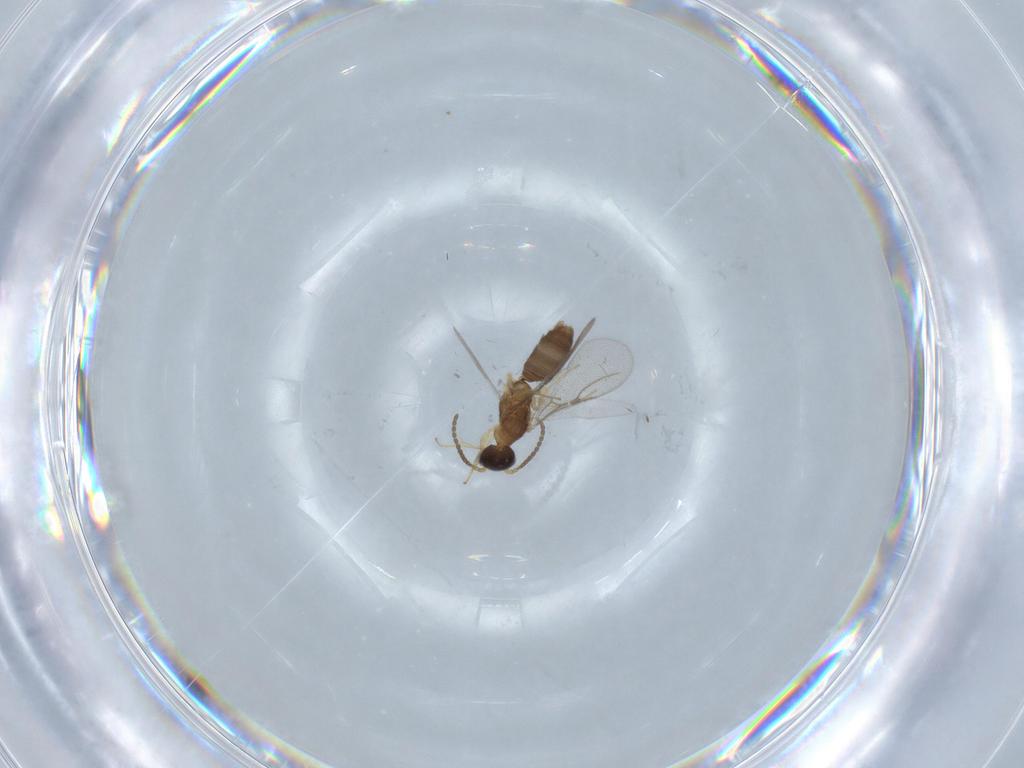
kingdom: Animalia
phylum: Arthropoda
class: Insecta
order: Hymenoptera
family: Bethylidae
